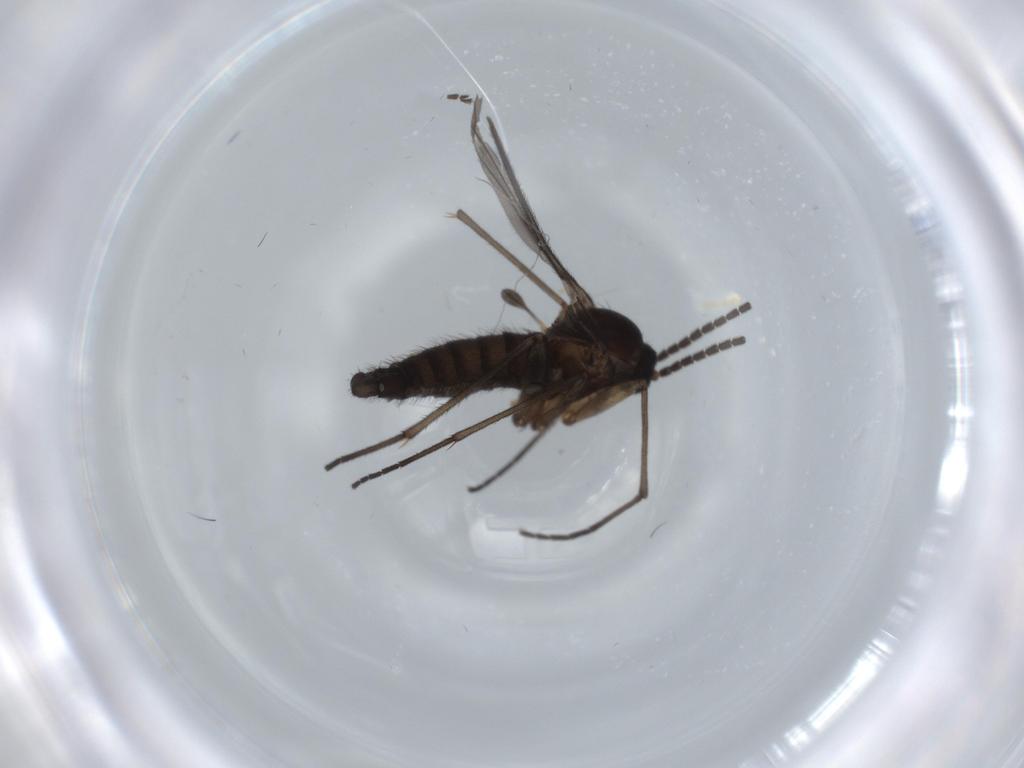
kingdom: Animalia
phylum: Arthropoda
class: Insecta
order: Diptera
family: Sciaridae
